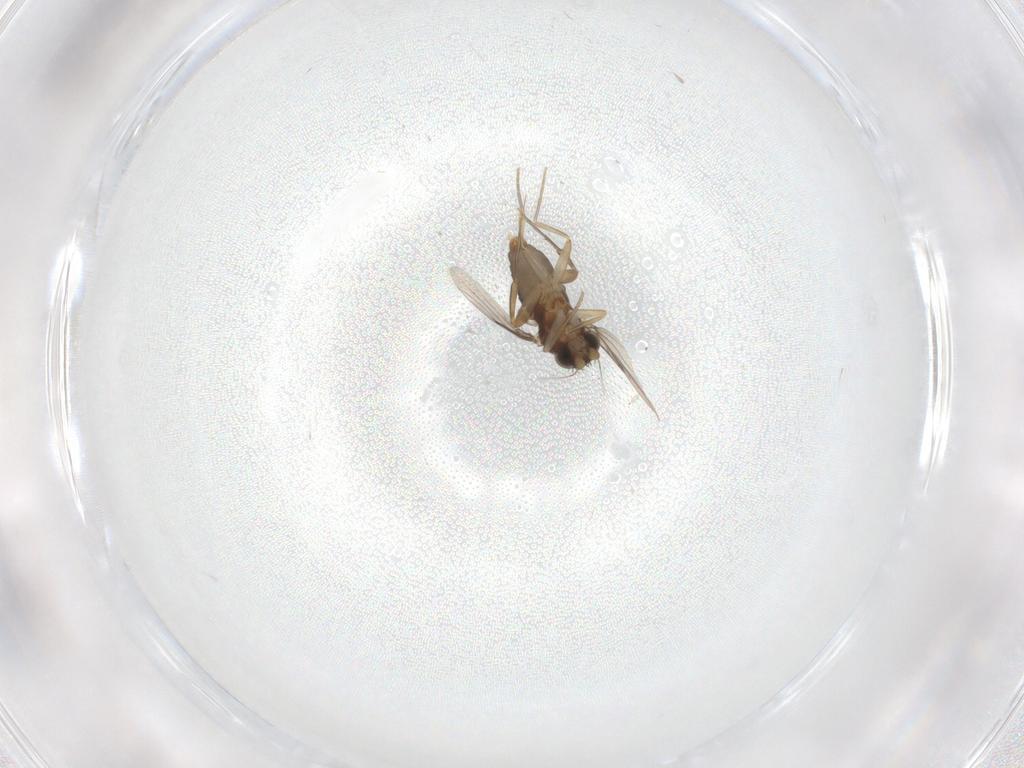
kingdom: Animalia
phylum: Arthropoda
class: Insecta
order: Diptera
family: Phoridae
